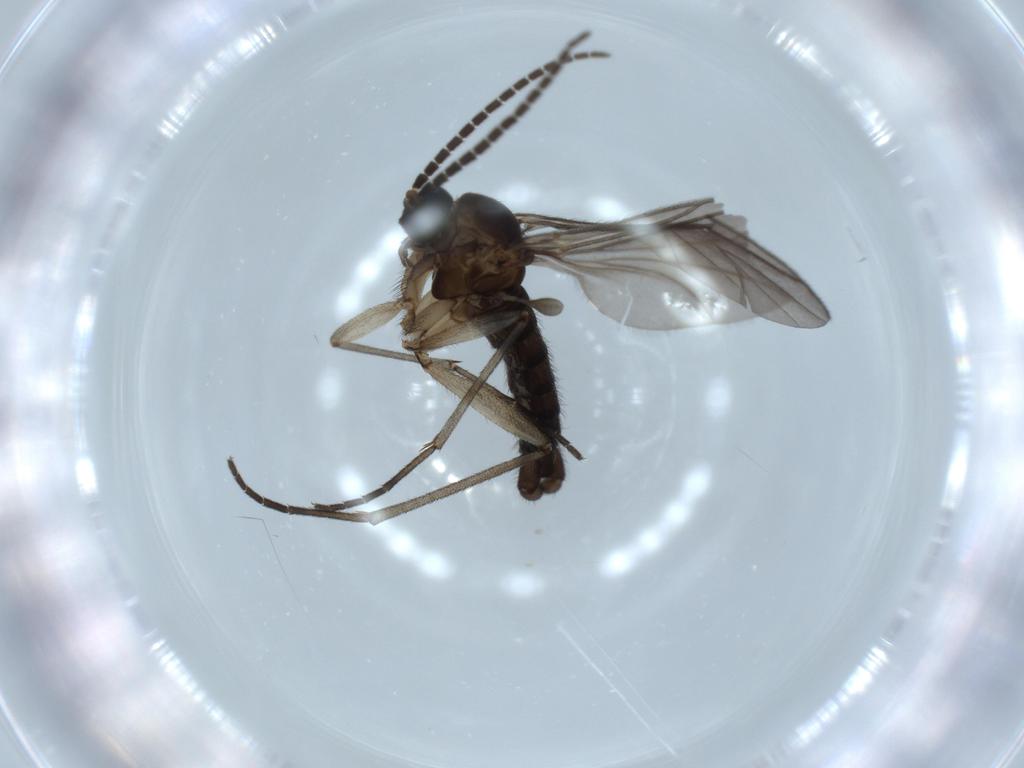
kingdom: Animalia
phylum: Arthropoda
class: Insecta
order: Diptera
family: Sciaridae
